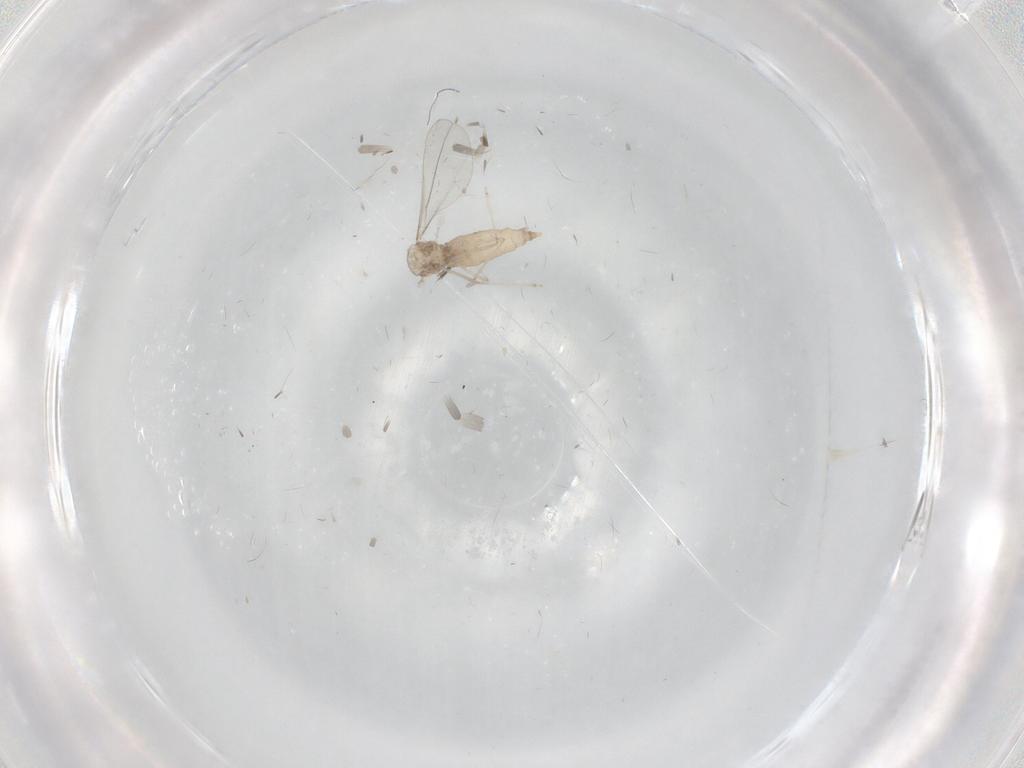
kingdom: Animalia
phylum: Arthropoda
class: Insecta
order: Diptera
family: Cecidomyiidae
